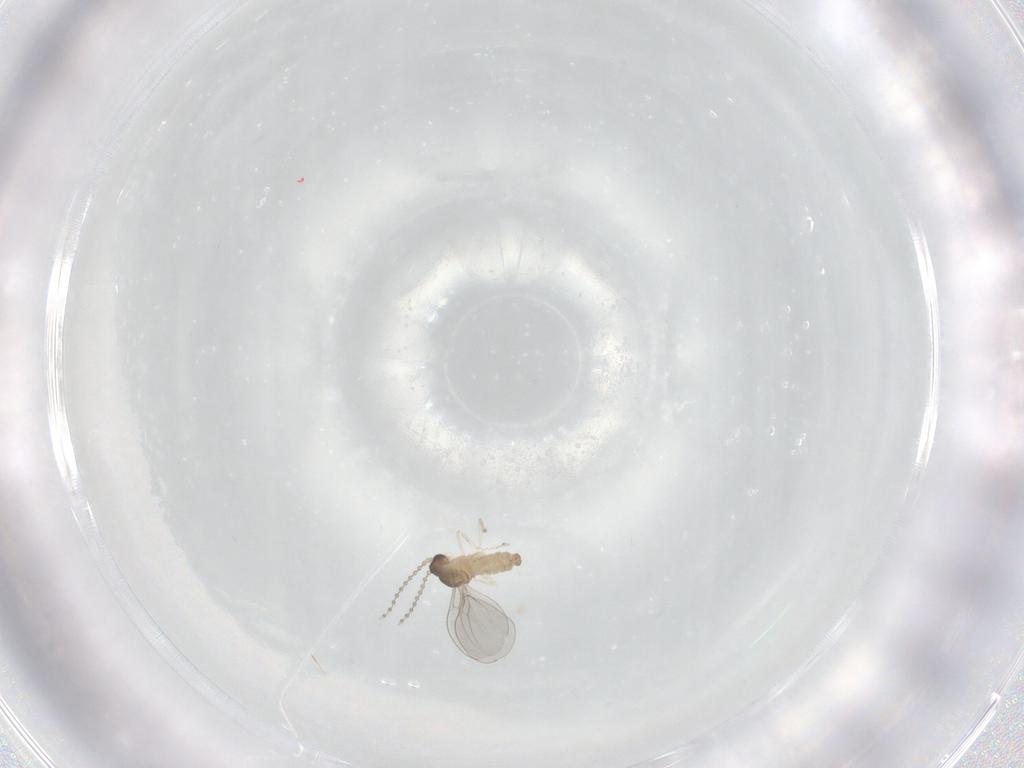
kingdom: Animalia
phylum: Arthropoda
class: Insecta
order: Diptera
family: Cecidomyiidae
